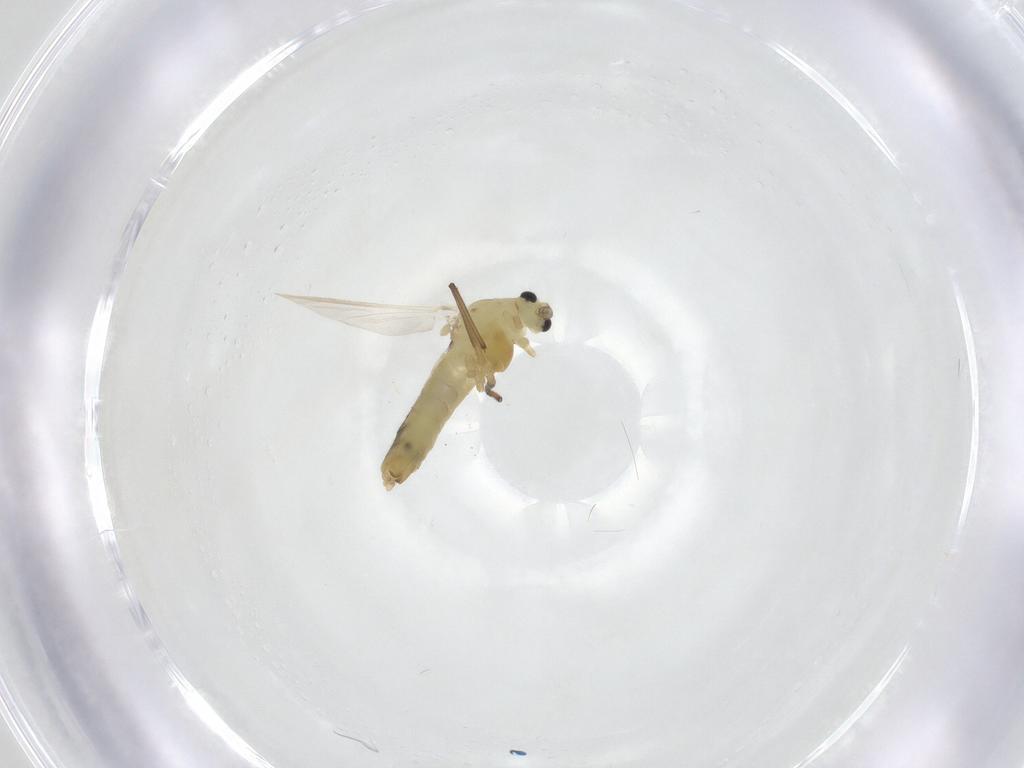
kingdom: Animalia
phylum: Arthropoda
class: Insecta
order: Diptera
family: Chironomidae
